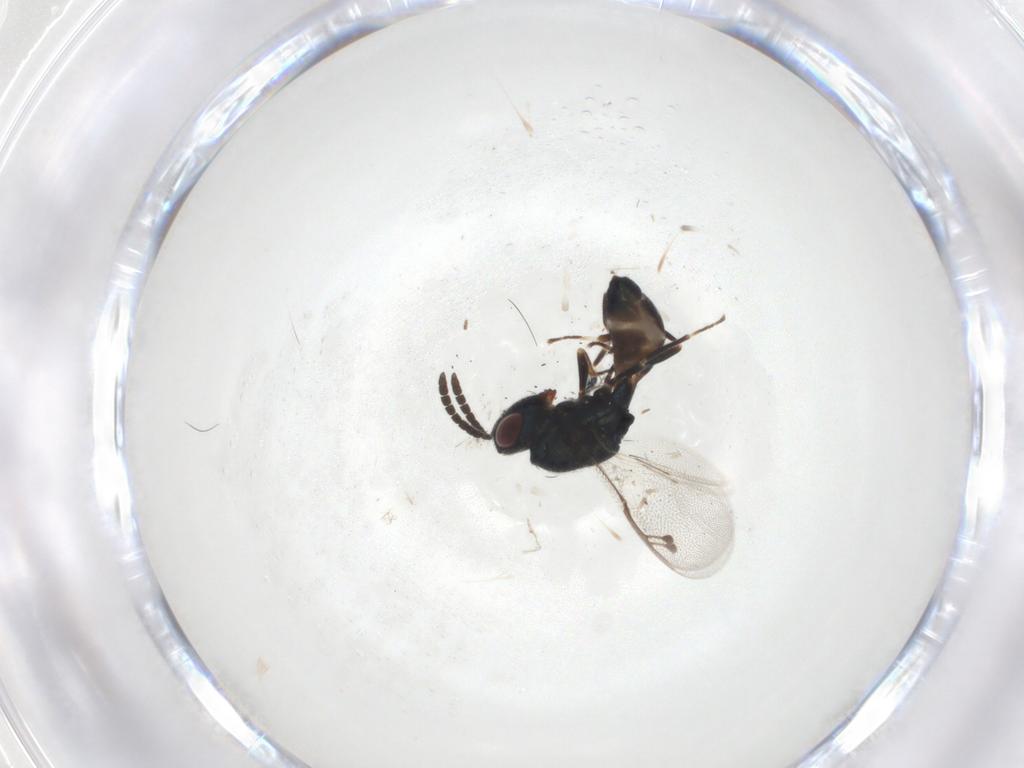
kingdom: Animalia
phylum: Arthropoda
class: Insecta
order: Hymenoptera
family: Pteromalidae
